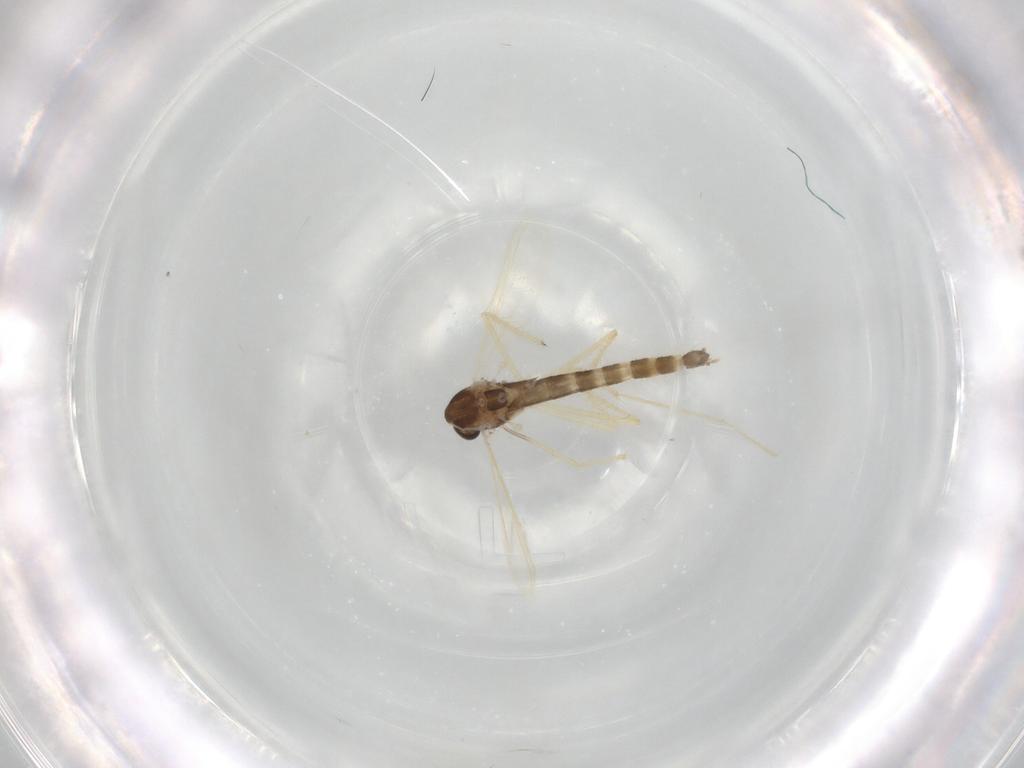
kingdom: Animalia
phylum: Arthropoda
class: Insecta
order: Diptera
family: Chironomidae
